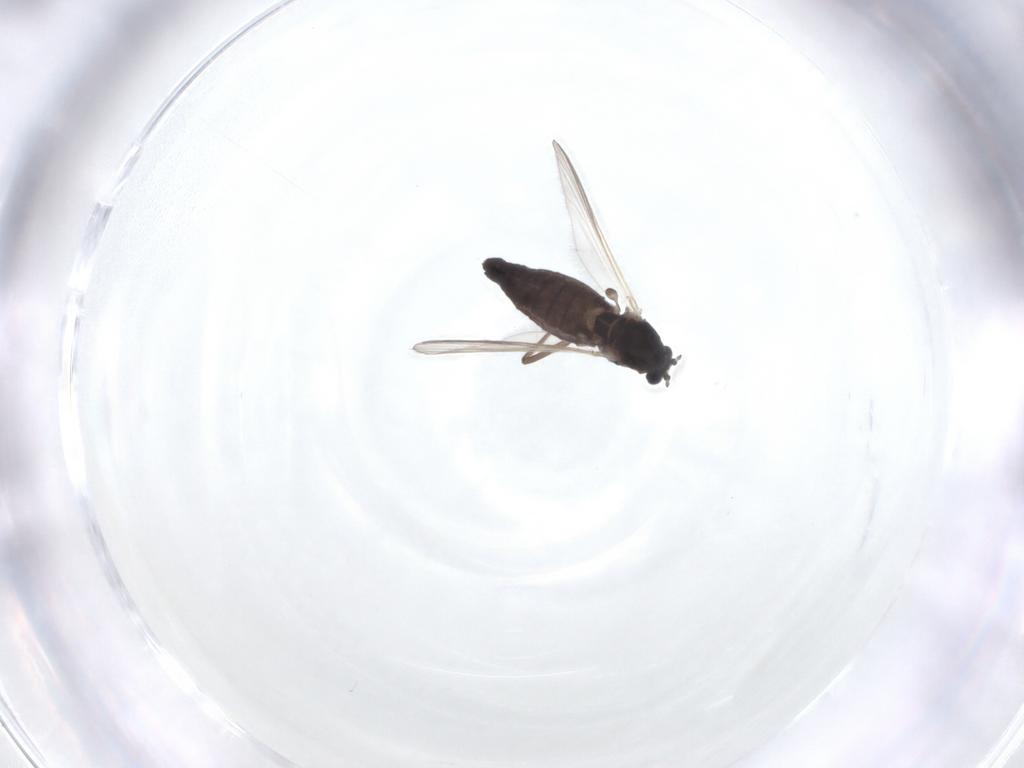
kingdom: Animalia
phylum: Arthropoda
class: Insecta
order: Diptera
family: Chironomidae
